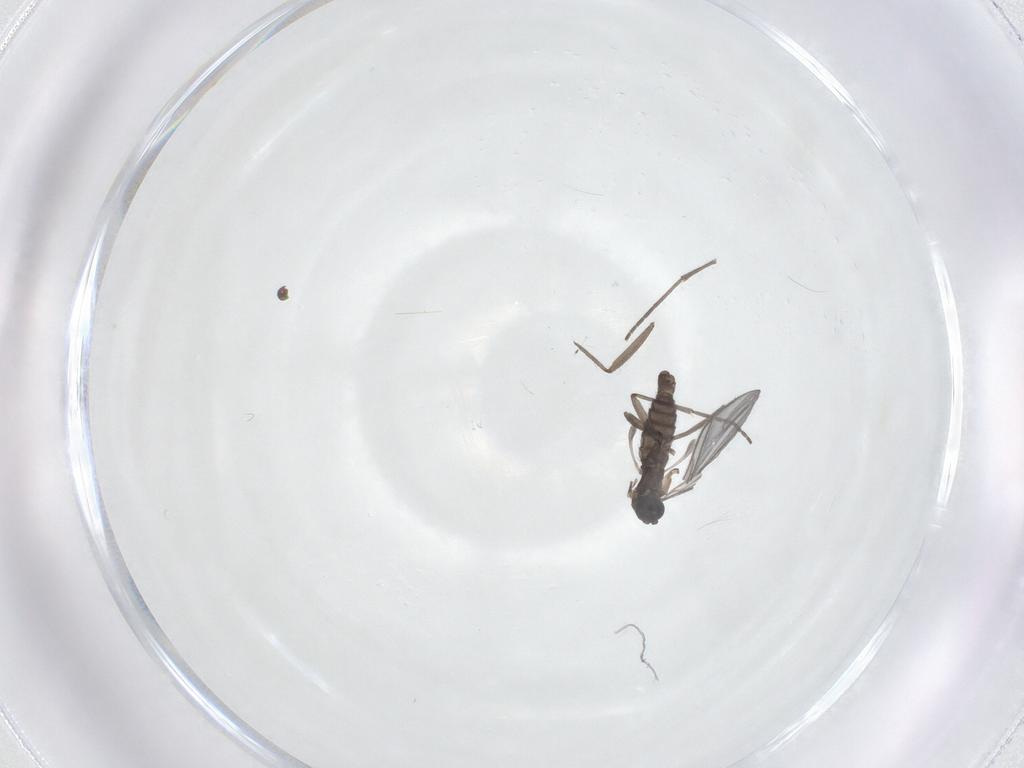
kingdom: Animalia
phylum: Arthropoda
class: Insecta
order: Diptera
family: Sciaridae
